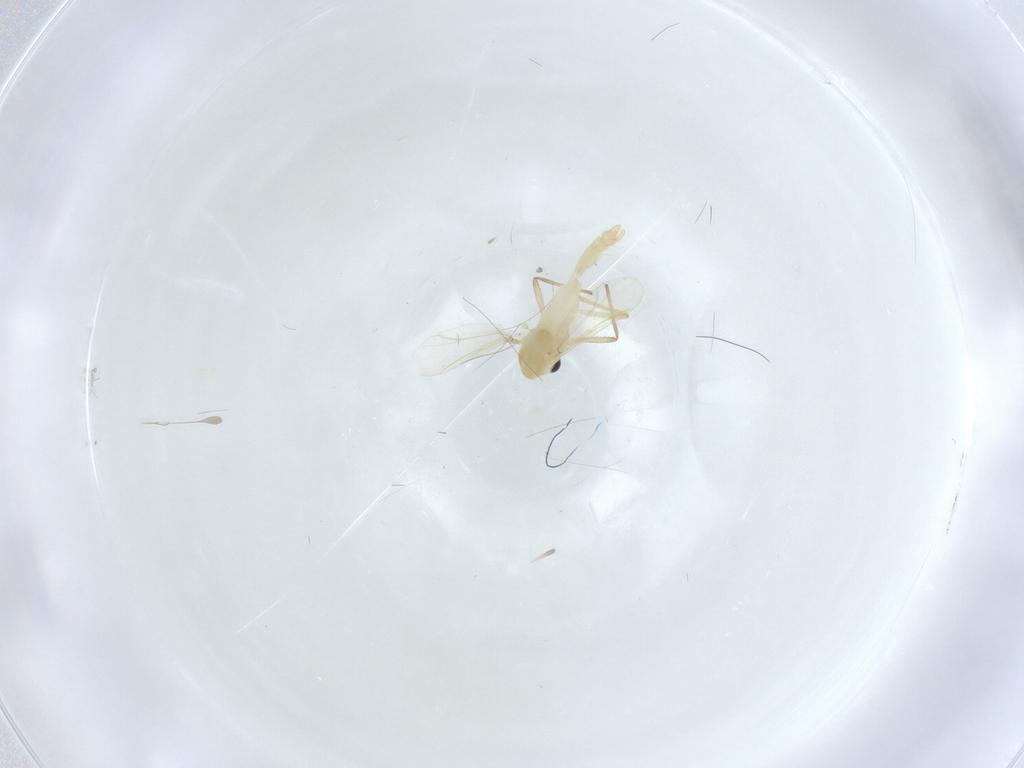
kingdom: Animalia
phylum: Arthropoda
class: Insecta
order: Diptera
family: Chironomidae
